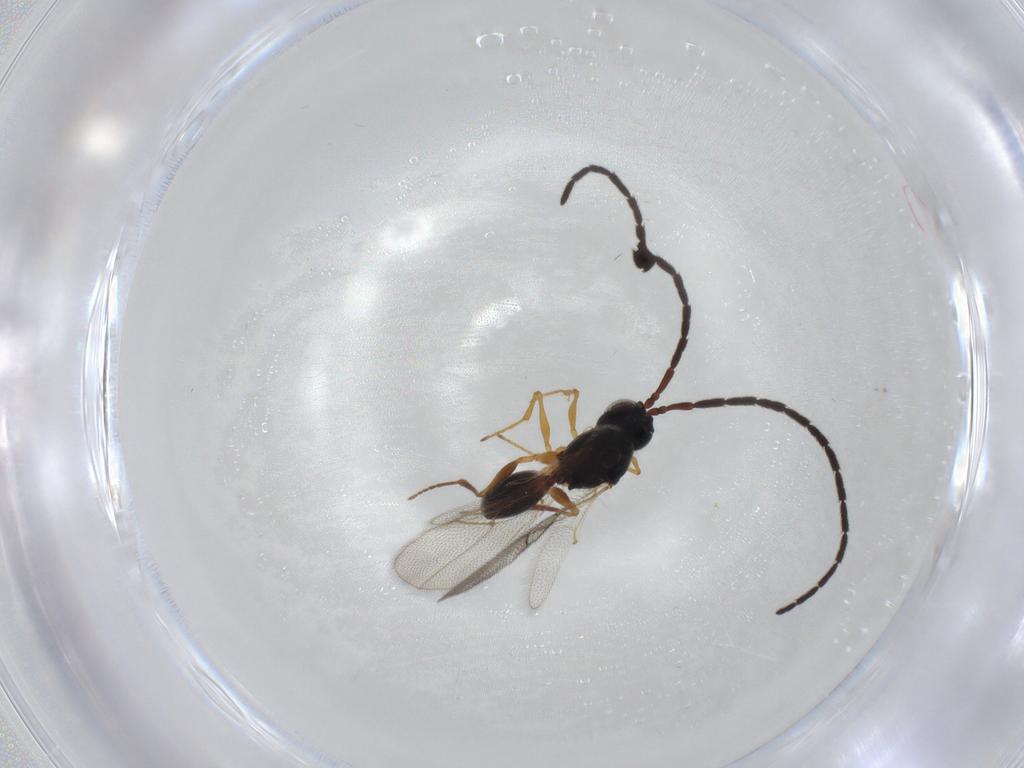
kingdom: Animalia
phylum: Arthropoda
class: Insecta
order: Hymenoptera
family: Figitidae
